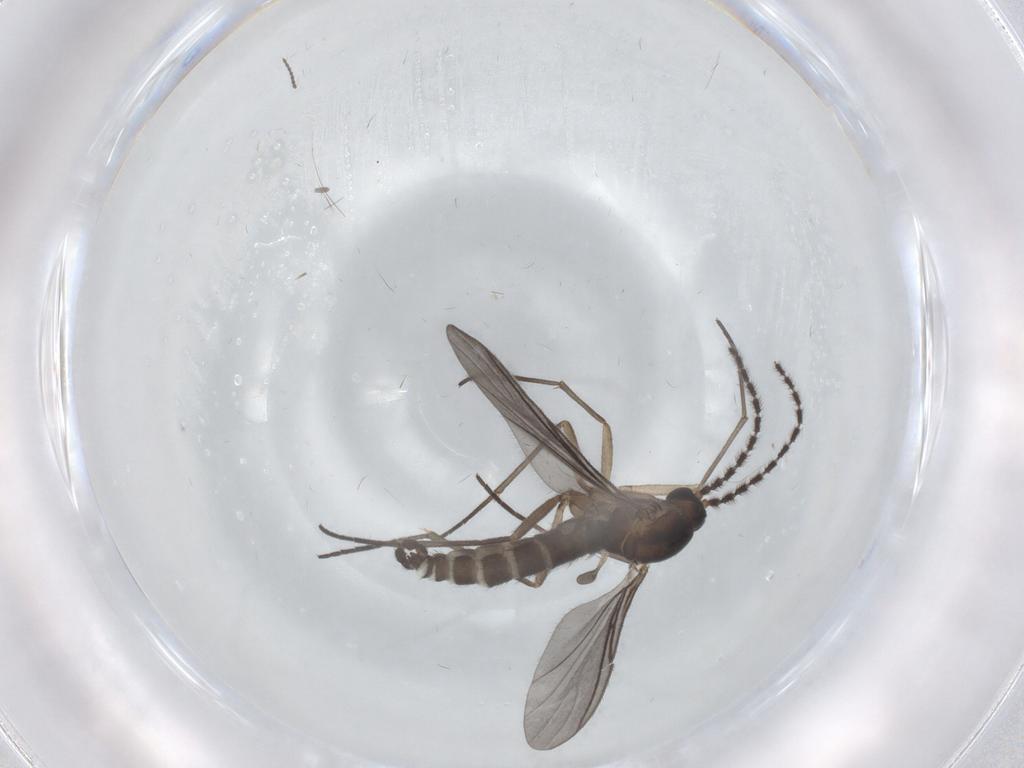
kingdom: Animalia
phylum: Arthropoda
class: Insecta
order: Diptera
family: Sciaridae
